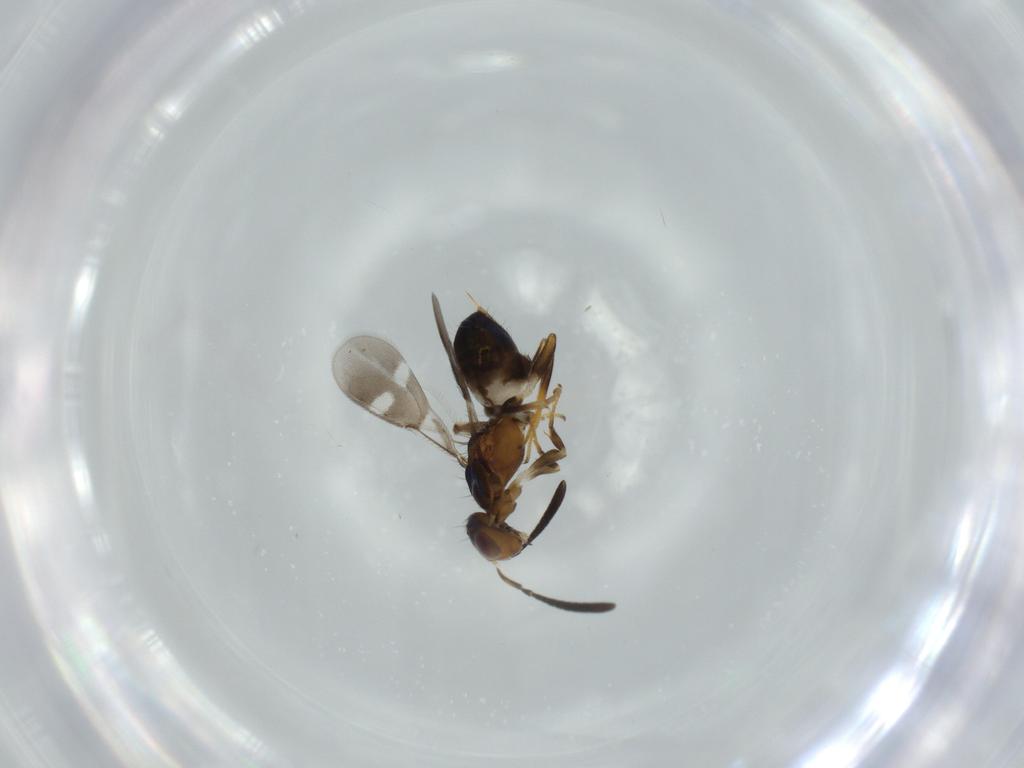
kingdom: Animalia
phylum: Arthropoda
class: Insecta
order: Hymenoptera
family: Eupelmidae
